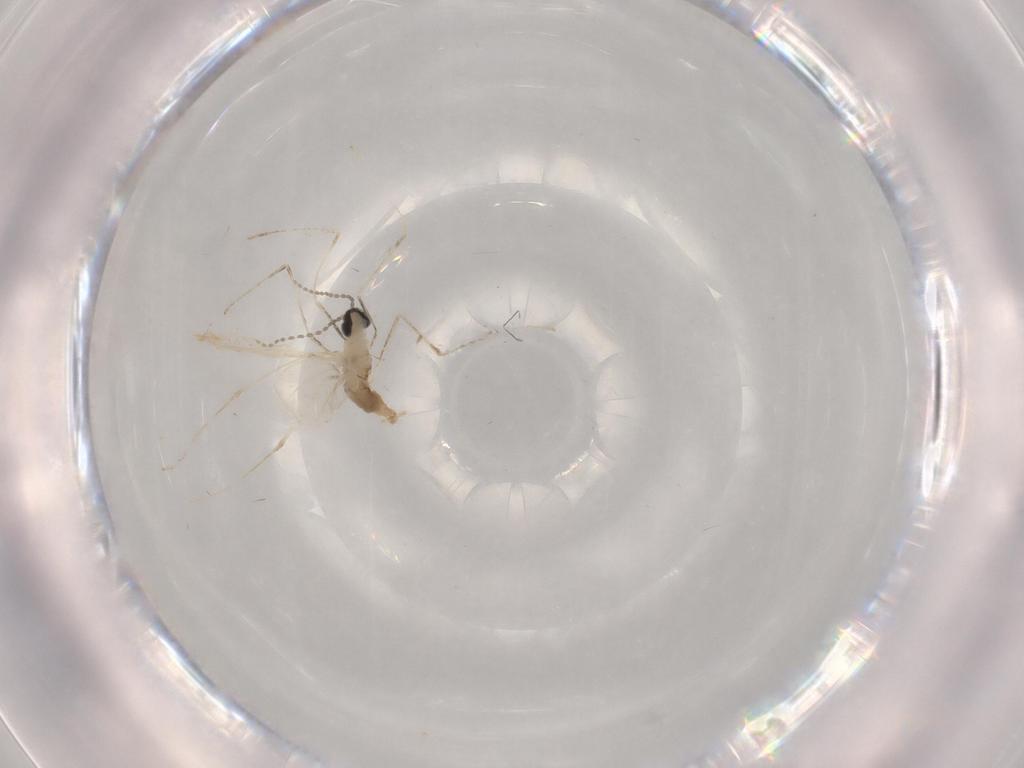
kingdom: Animalia
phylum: Arthropoda
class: Insecta
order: Diptera
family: Cecidomyiidae
